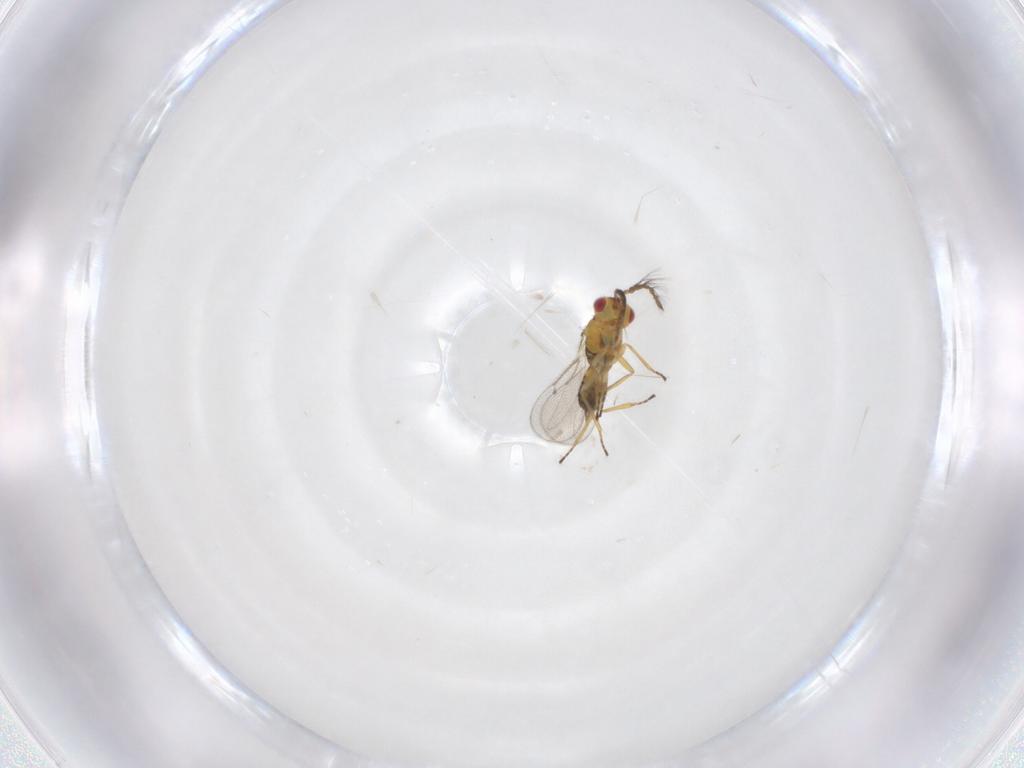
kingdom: Animalia
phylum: Arthropoda
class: Insecta
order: Hymenoptera
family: Eulophidae
